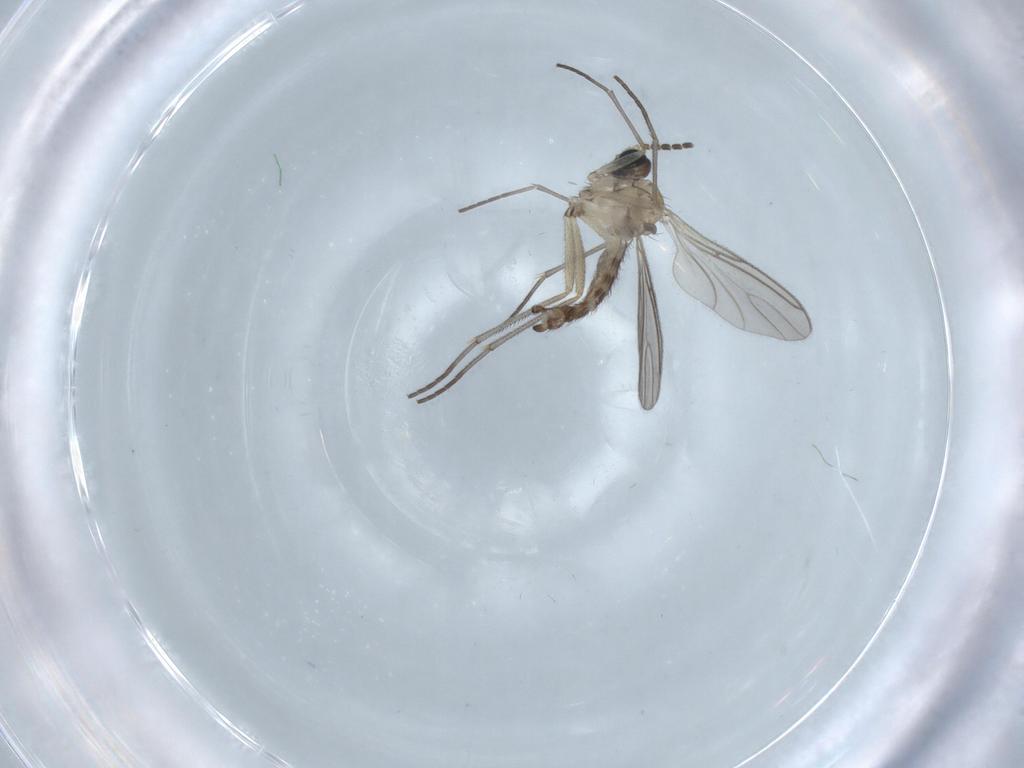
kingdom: Animalia
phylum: Arthropoda
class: Insecta
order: Diptera
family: Sciaridae
